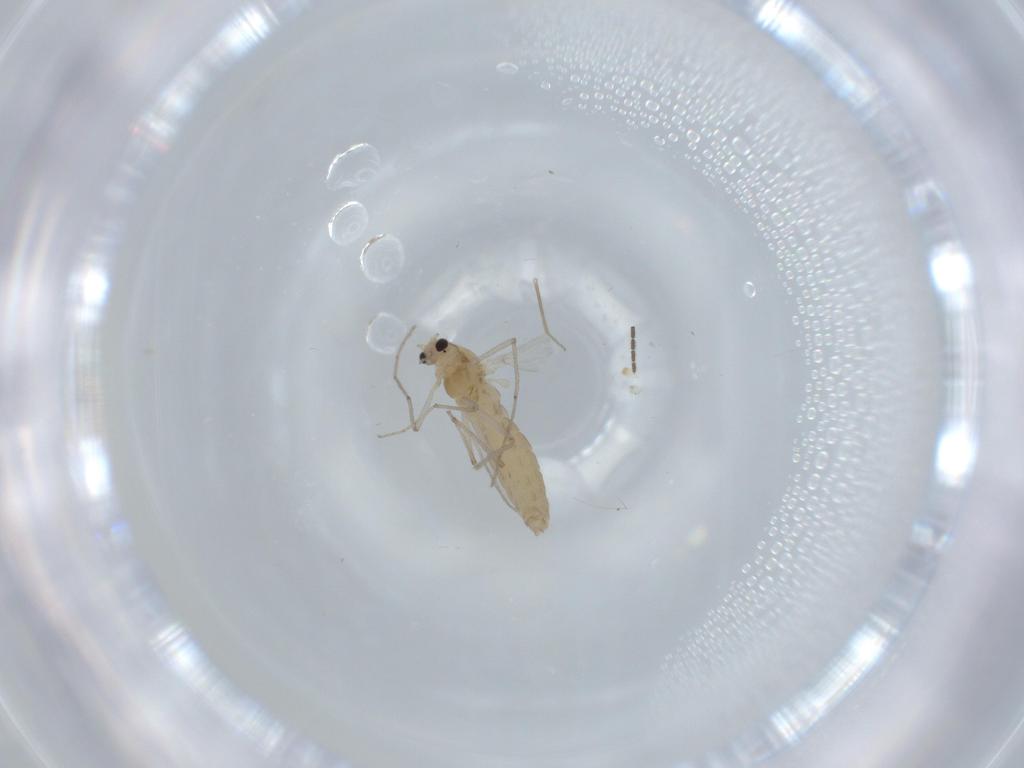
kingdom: Animalia
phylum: Arthropoda
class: Insecta
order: Diptera
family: Chironomidae
